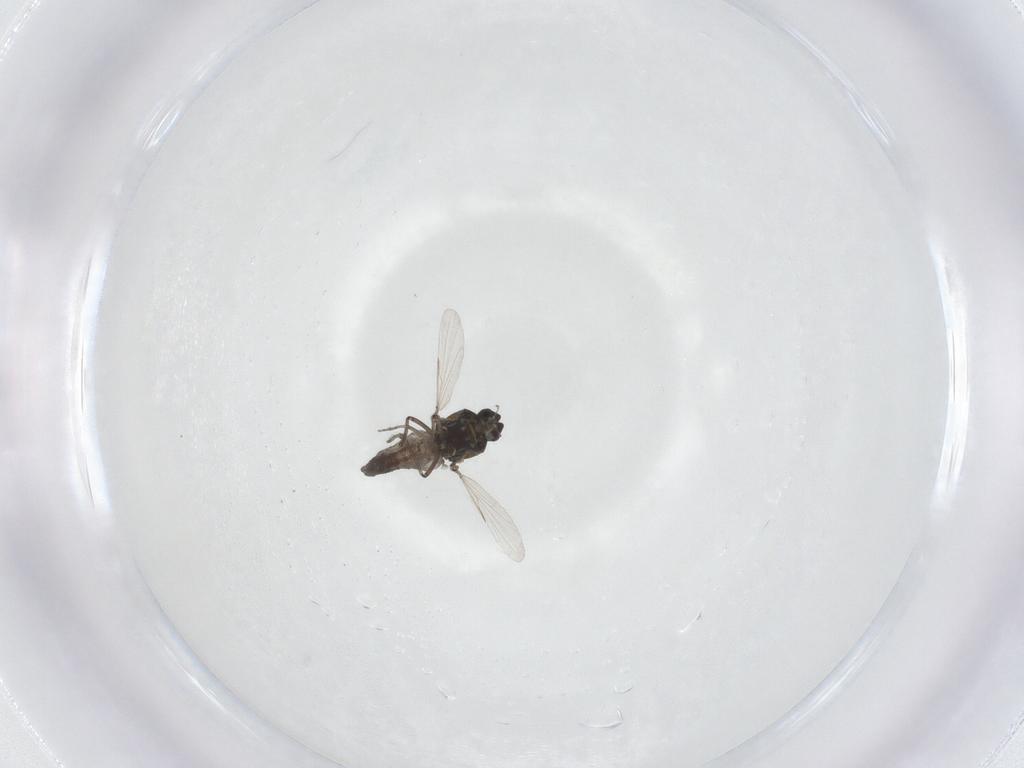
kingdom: Animalia
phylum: Arthropoda
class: Insecta
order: Diptera
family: Ceratopogonidae
